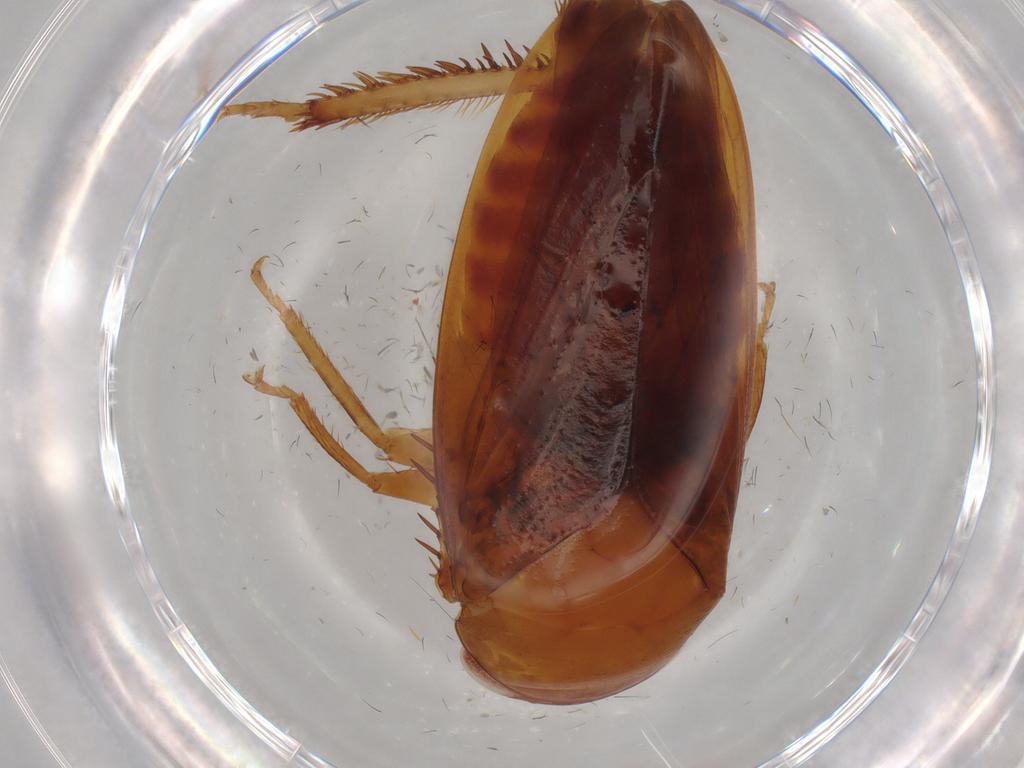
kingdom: Animalia
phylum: Arthropoda
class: Insecta
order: Hemiptera
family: Cicadellidae
